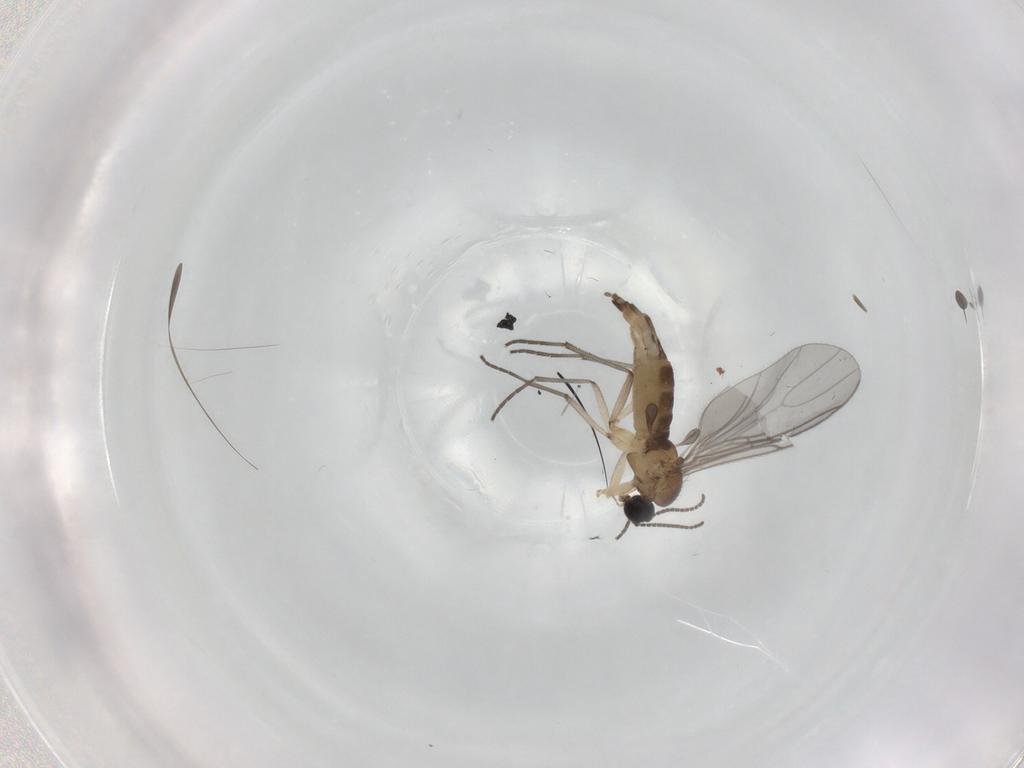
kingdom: Animalia
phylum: Arthropoda
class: Insecta
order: Diptera
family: Sciaridae
